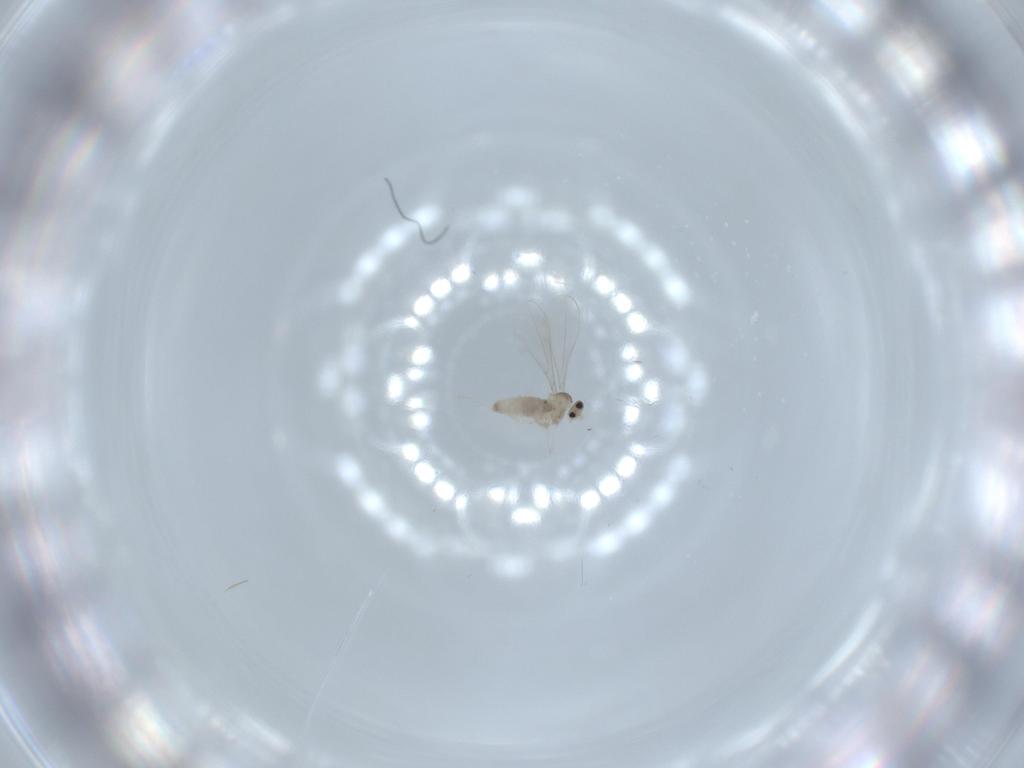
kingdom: Animalia
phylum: Arthropoda
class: Insecta
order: Diptera
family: Cecidomyiidae
